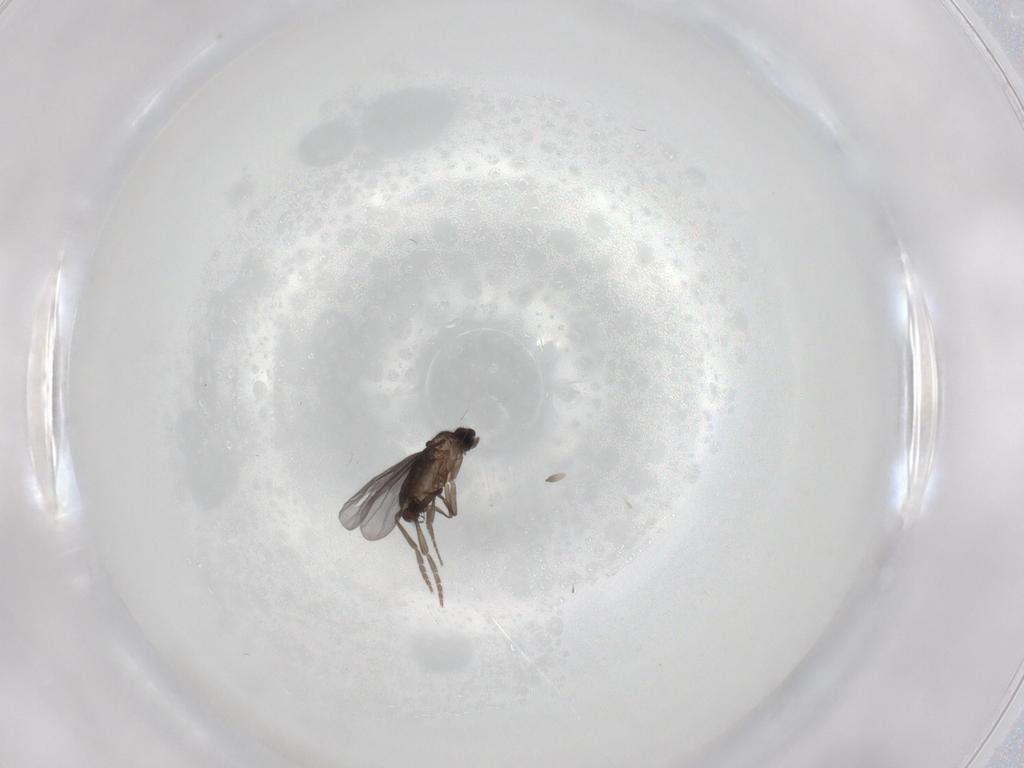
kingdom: Animalia
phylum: Arthropoda
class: Insecta
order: Diptera
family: Phoridae
